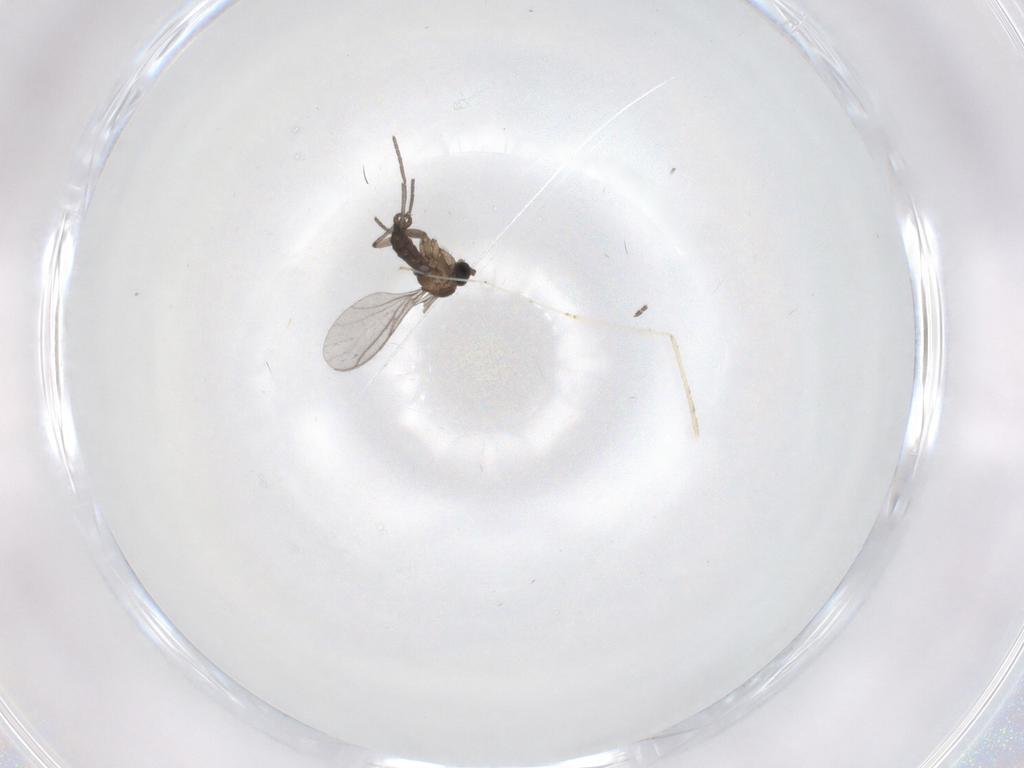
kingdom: Animalia
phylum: Arthropoda
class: Insecta
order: Diptera
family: Sciaridae
